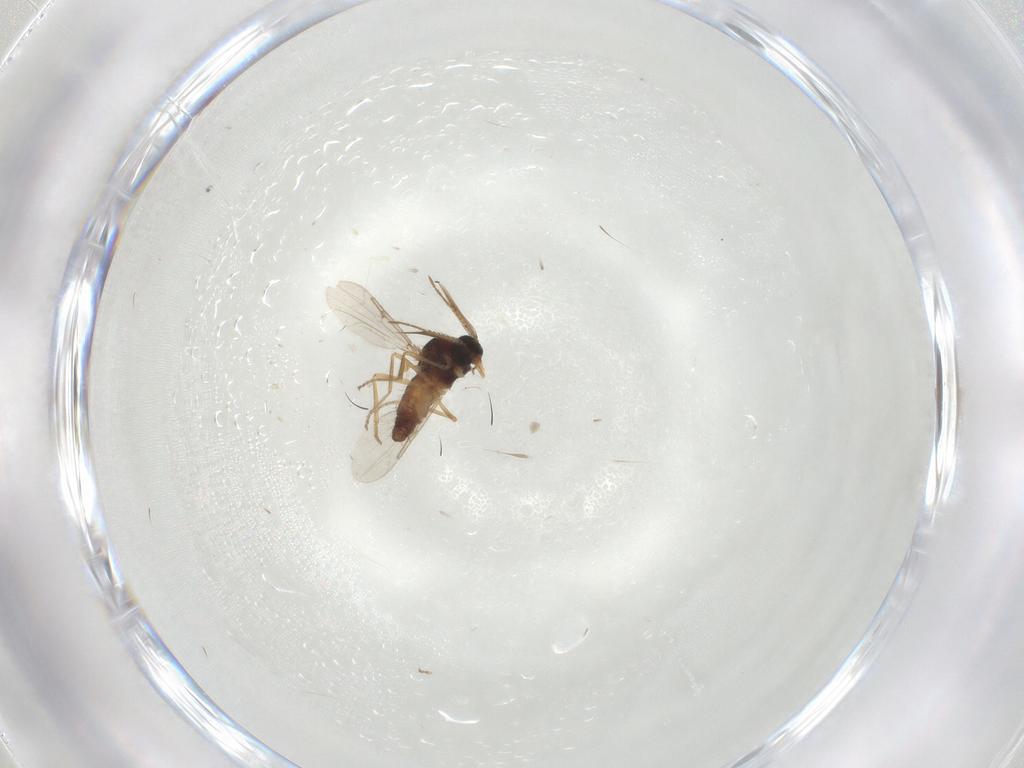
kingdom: Animalia
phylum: Arthropoda
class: Insecta
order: Diptera
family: Ceratopogonidae
